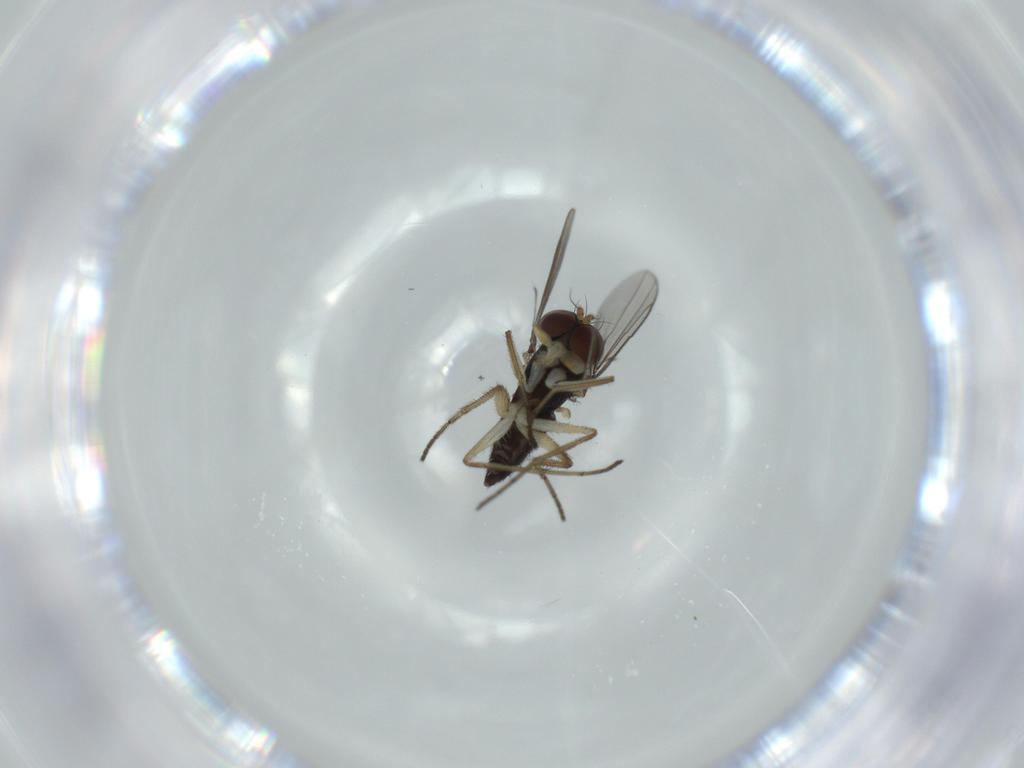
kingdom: Animalia
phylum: Arthropoda
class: Insecta
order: Diptera
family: Dolichopodidae
